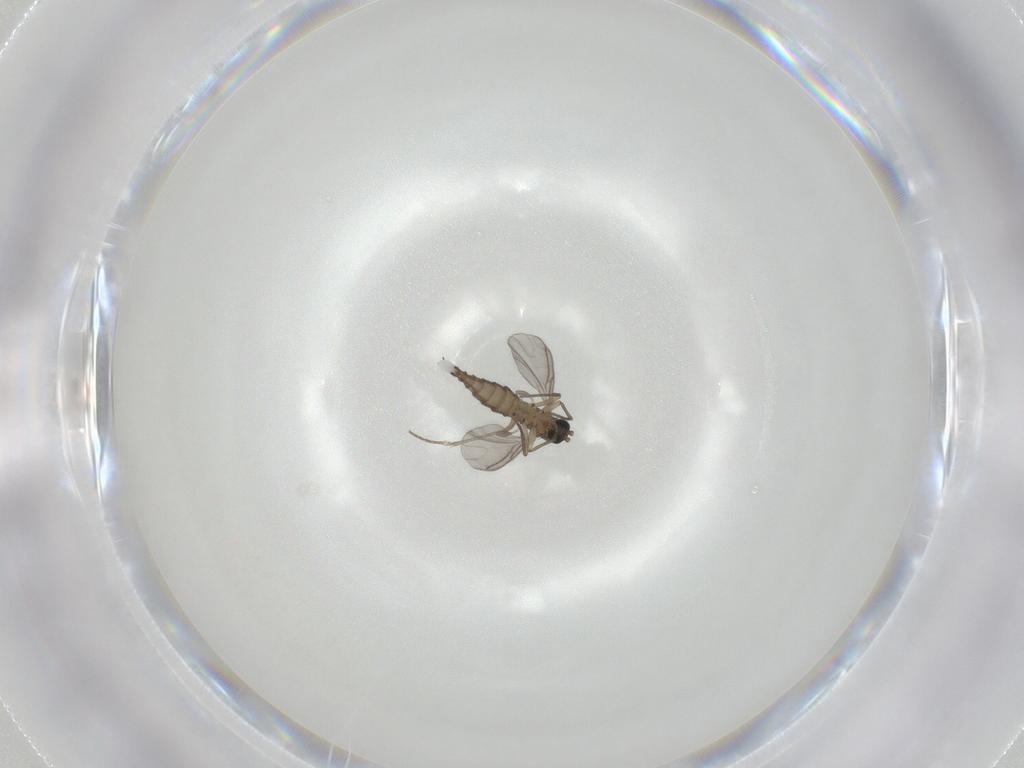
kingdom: Animalia
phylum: Arthropoda
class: Insecta
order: Diptera
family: Sciaridae
